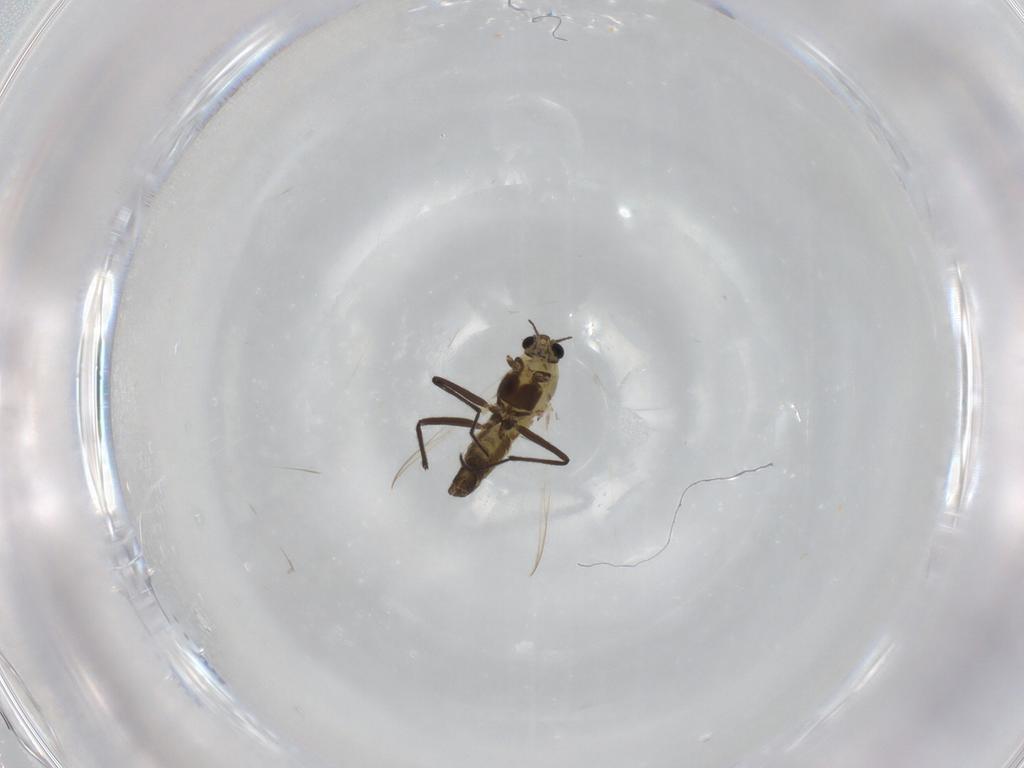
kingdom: Animalia
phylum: Arthropoda
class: Insecta
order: Diptera
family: Chironomidae
